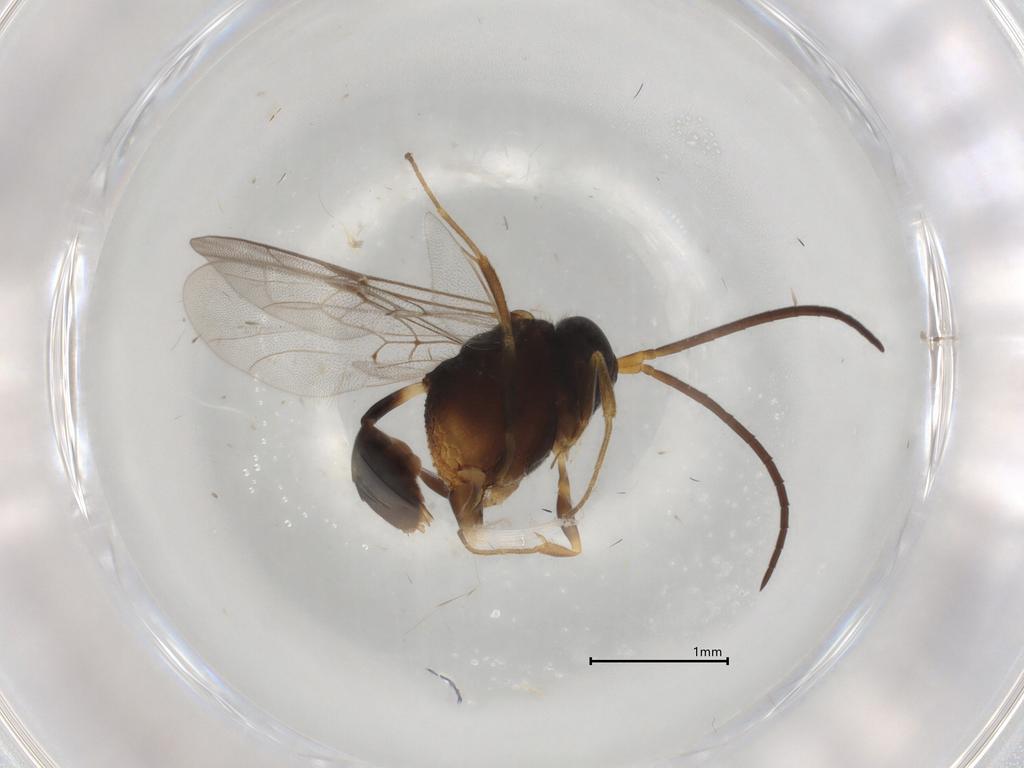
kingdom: Animalia
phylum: Arthropoda
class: Insecta
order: Hymenoptera
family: Evaniidae
